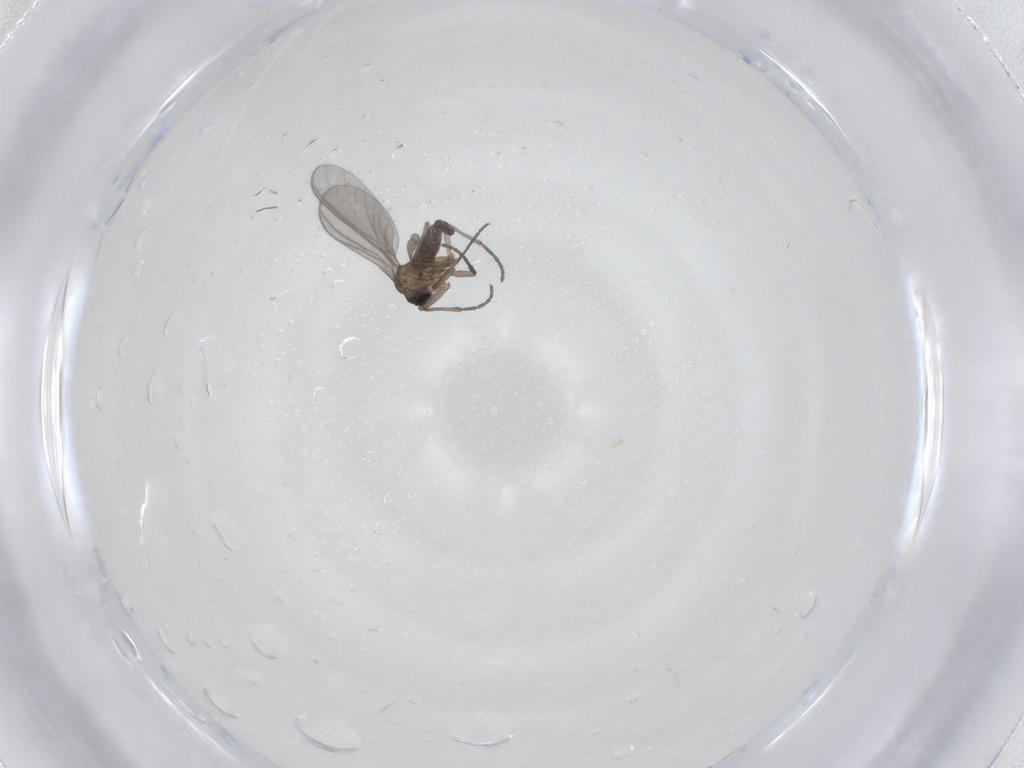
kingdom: Animalia
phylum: Arthropoda
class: Insecta
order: Diptera
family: Sciaridae
